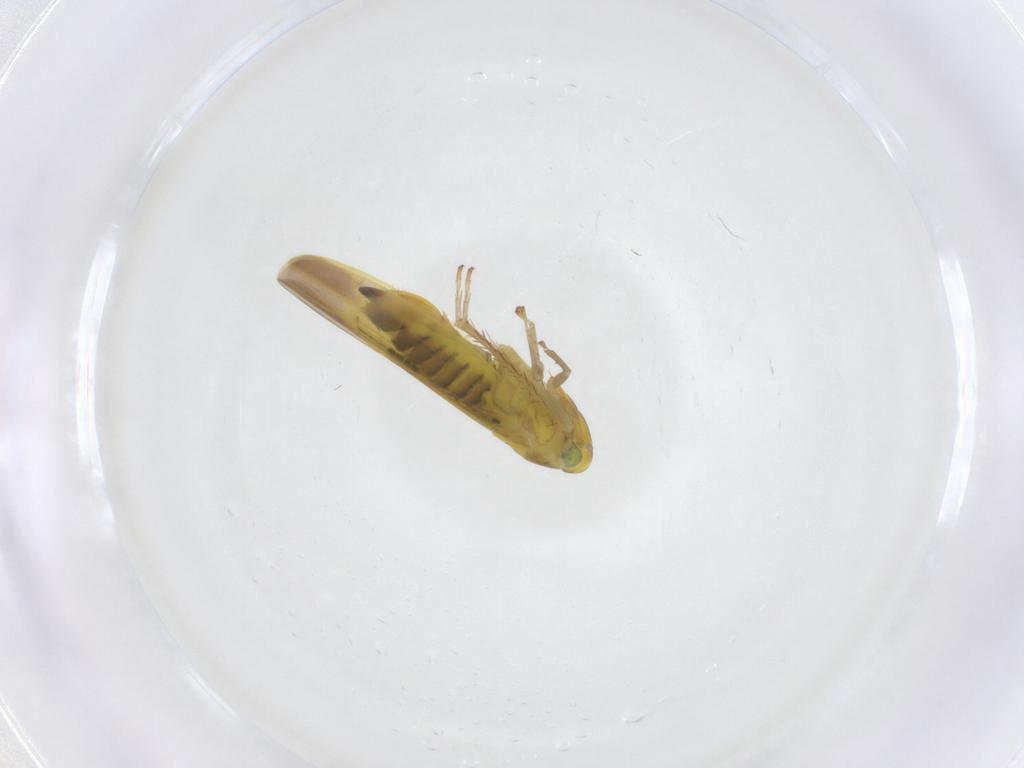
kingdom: Animalia
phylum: Arthropoda
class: Insecta
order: Hemiptera
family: Cicadellidae
